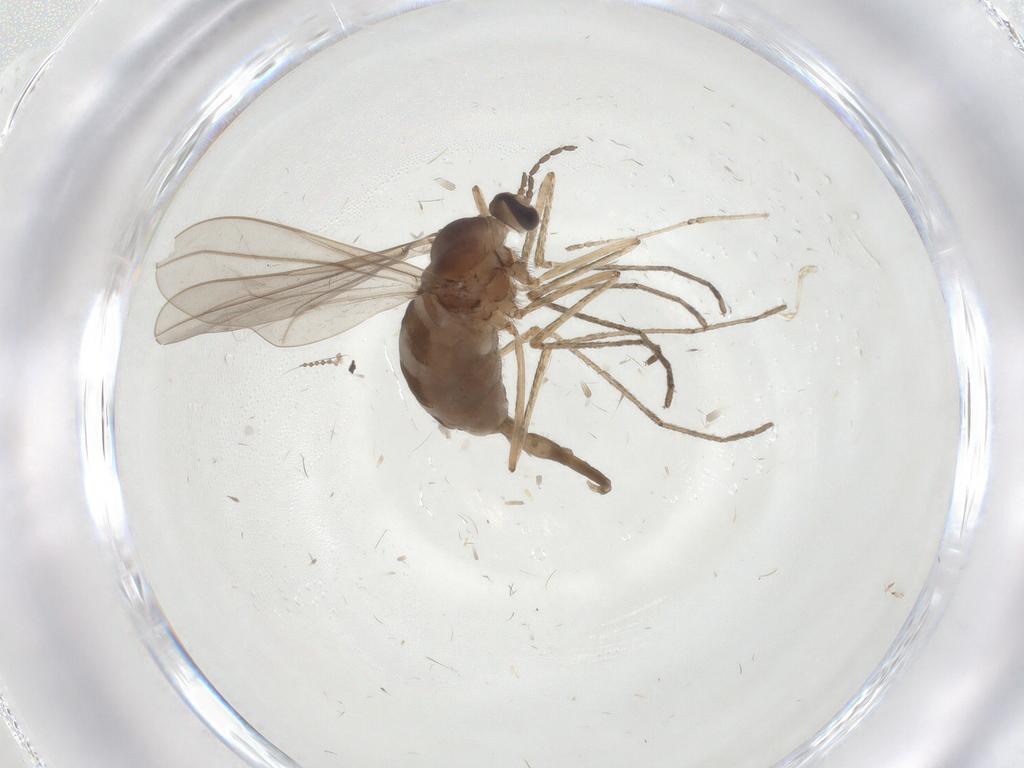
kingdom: Animalia
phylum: Arthropoda
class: Insecta
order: Diptera
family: Cecidomyiidae
